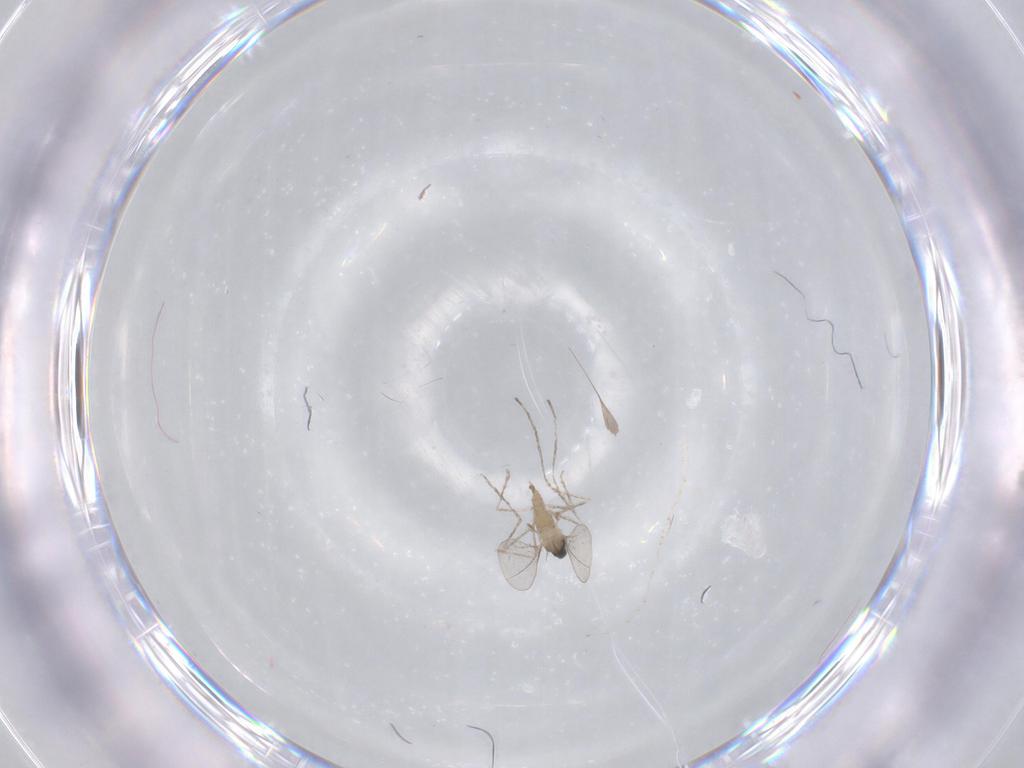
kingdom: Animalia
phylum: Arthropoda
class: Insecta
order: Diptera
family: Cecidomyiidae
